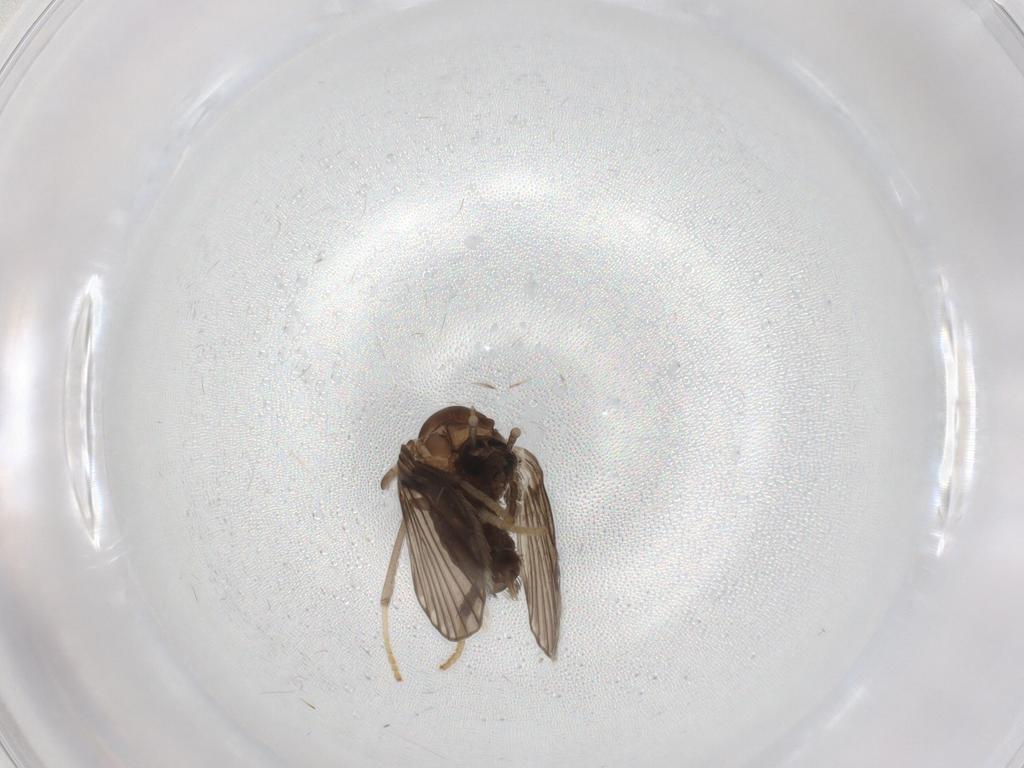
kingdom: Animalia
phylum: Arthropoda
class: Insecta
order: Diptera
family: Psychodidae
